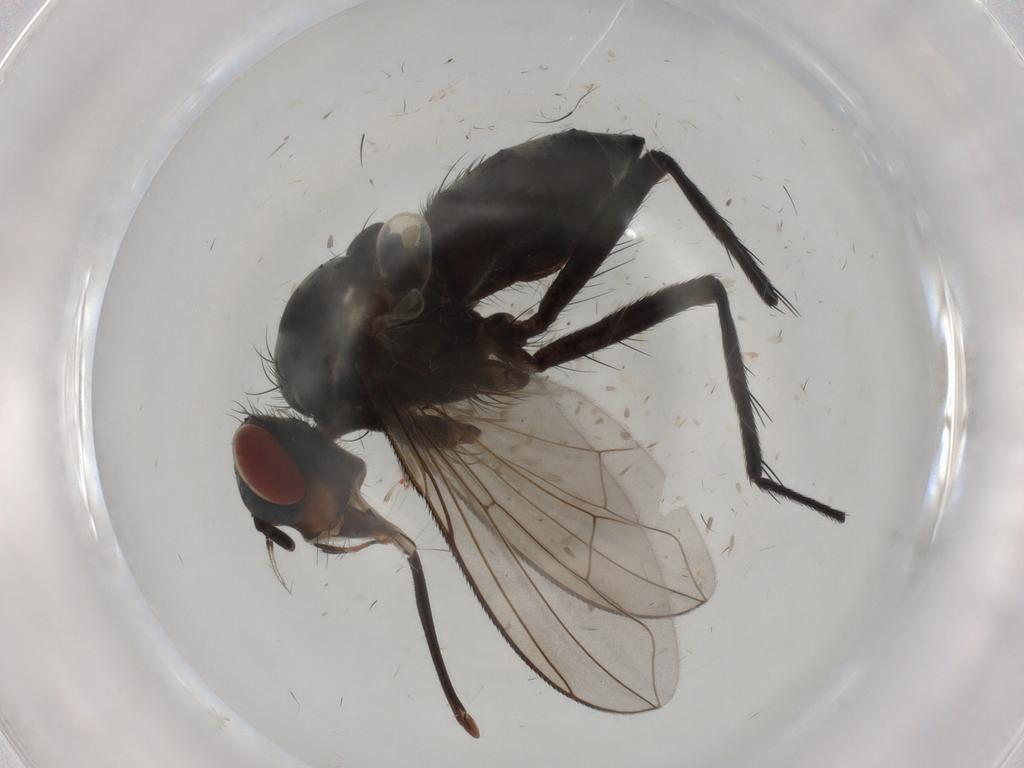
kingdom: Animalia
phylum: Arthropoda
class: Insecta
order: Diptera
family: Tachinidae
